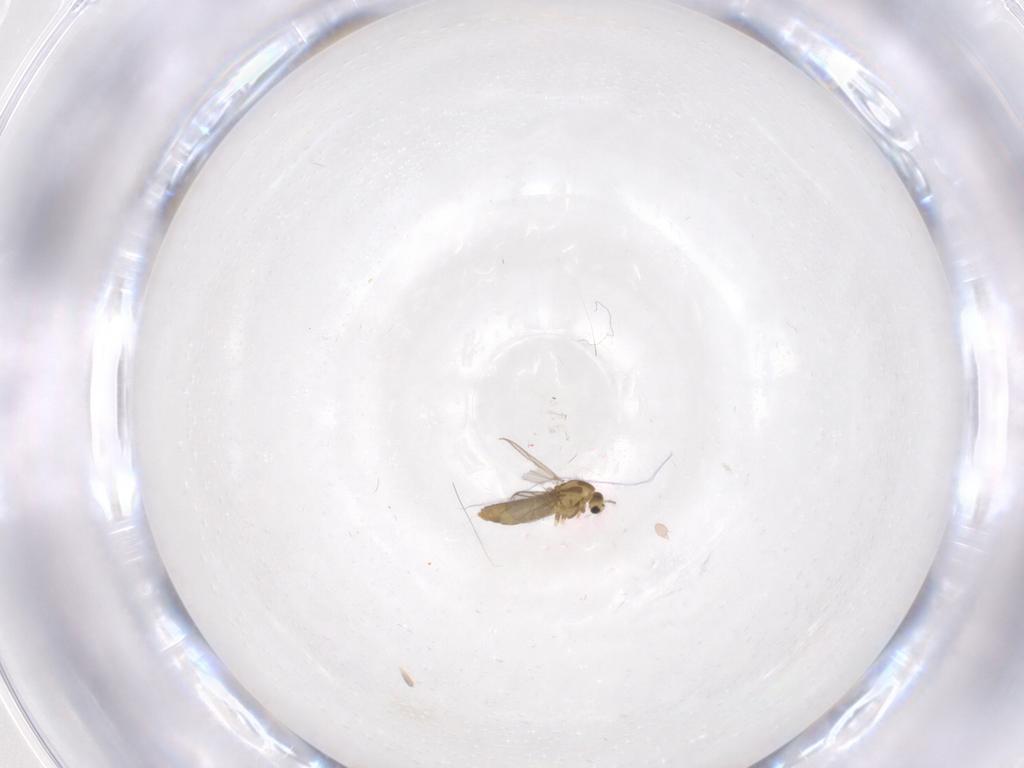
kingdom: Animalia
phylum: Arthropoda
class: Insecta
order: Diptera
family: Chironomidae
